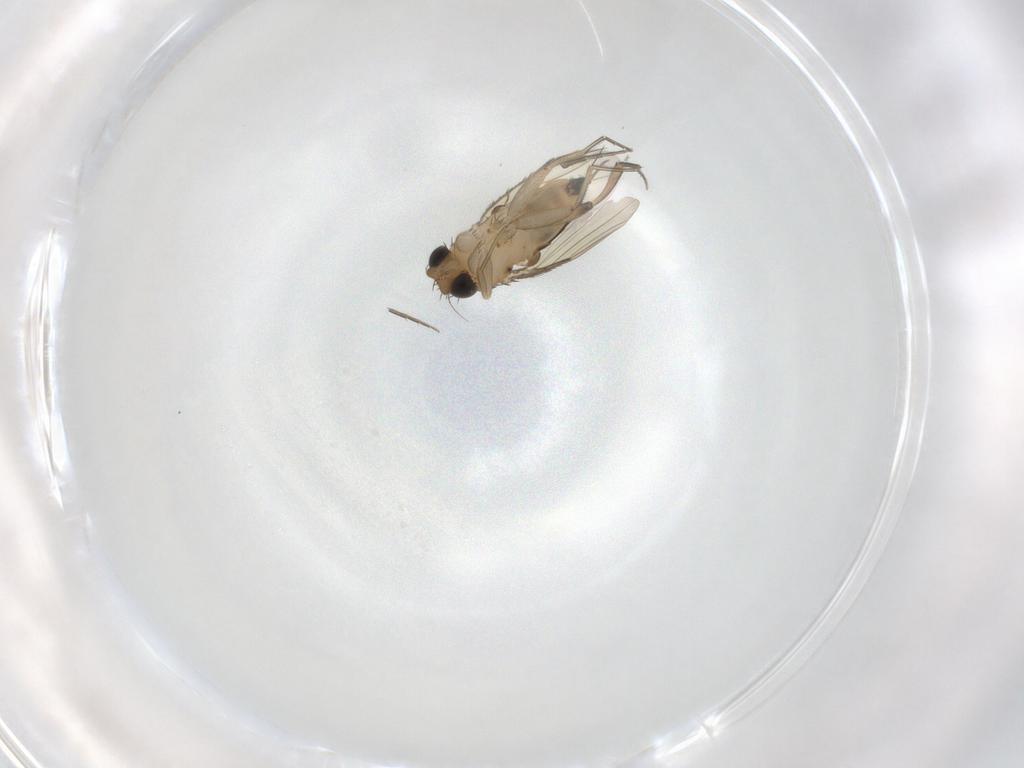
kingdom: Animalia
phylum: Arthropoda
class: Insecta
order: Diptera
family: Phoridae
